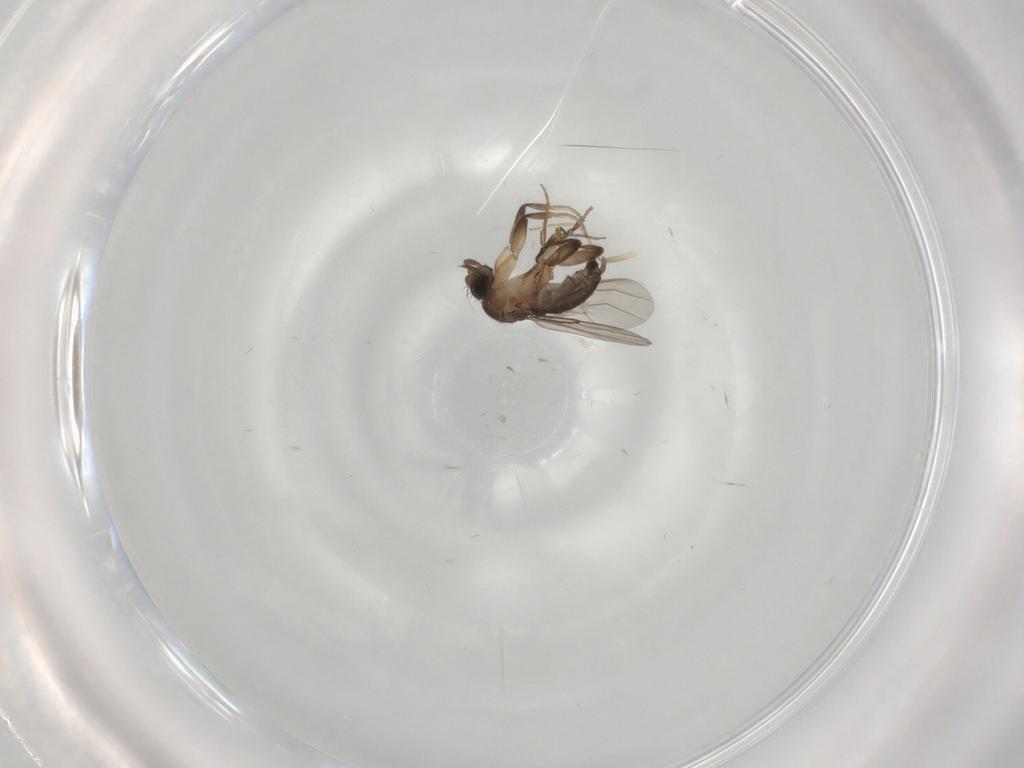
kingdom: Animalia
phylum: Arthropoda
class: Insecta
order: Diptera
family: Phoridae
